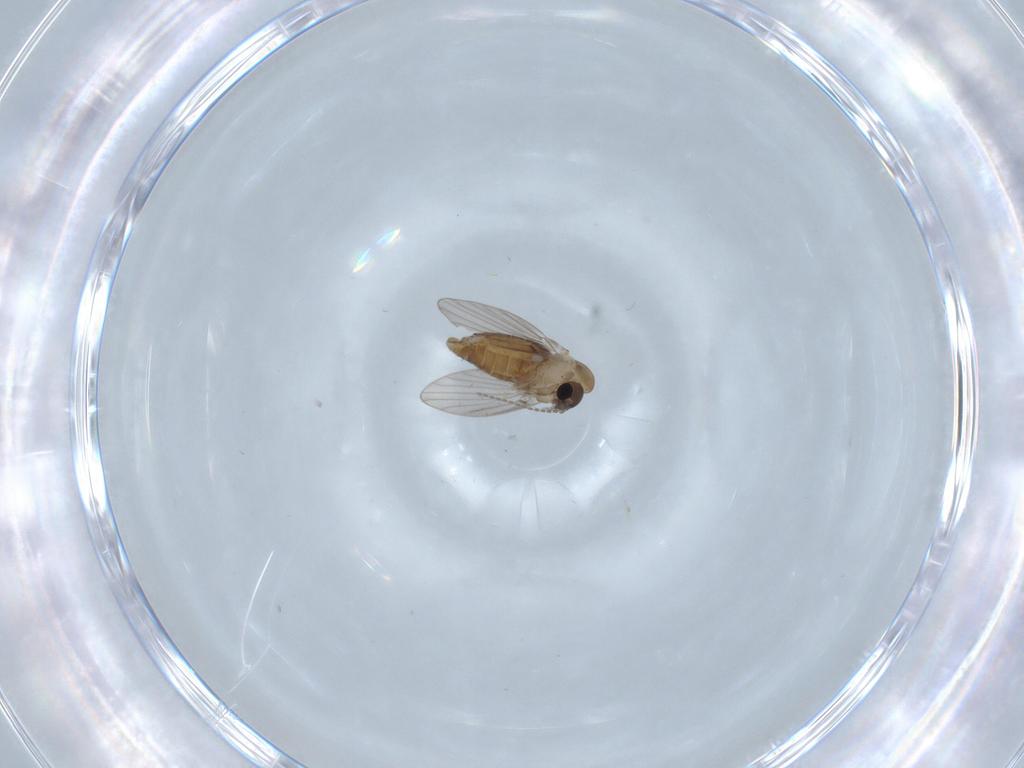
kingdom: Animalia
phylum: Arthropoda
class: Insecta
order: Diptera
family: Psychodidae
